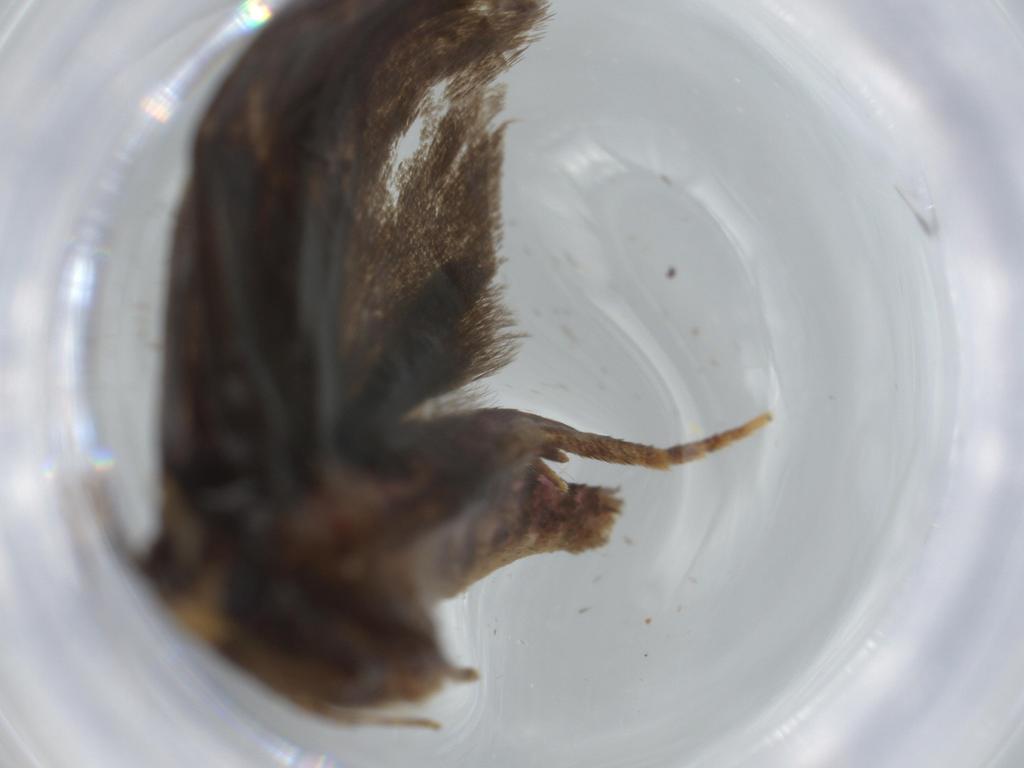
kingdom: Animalia
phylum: Arthropoda
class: Insecta
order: Lepidoptera
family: Autostichidae
